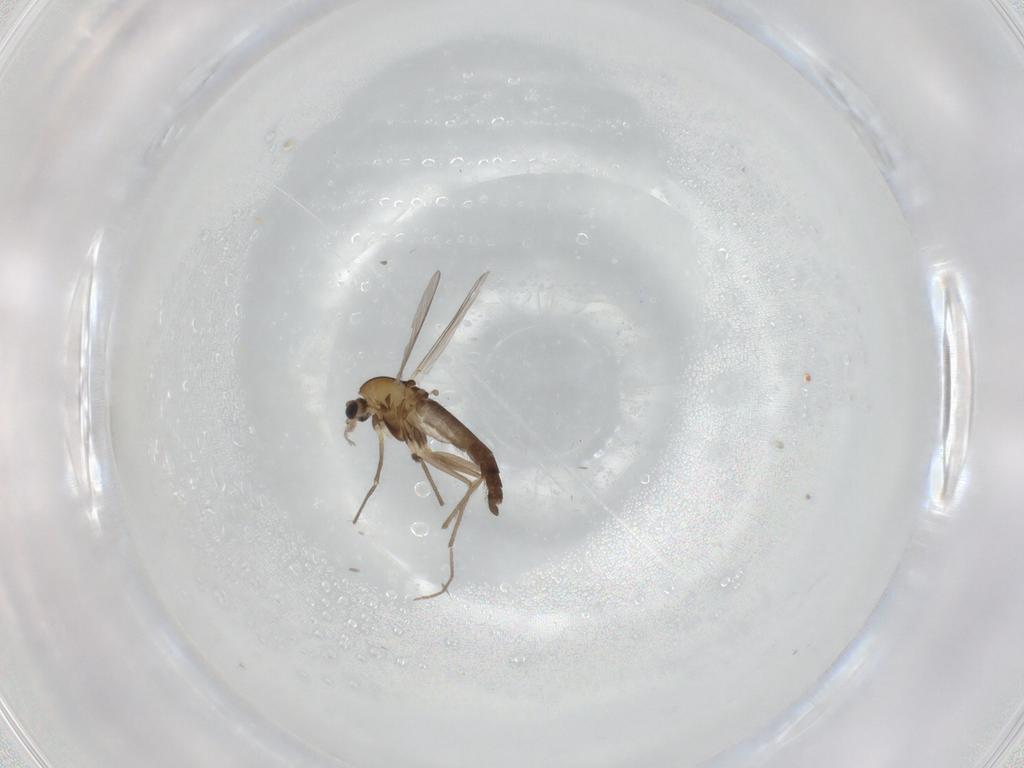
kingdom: Animalia
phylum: Arthropoda
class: Insecta
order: Diptera
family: Chironomidae
